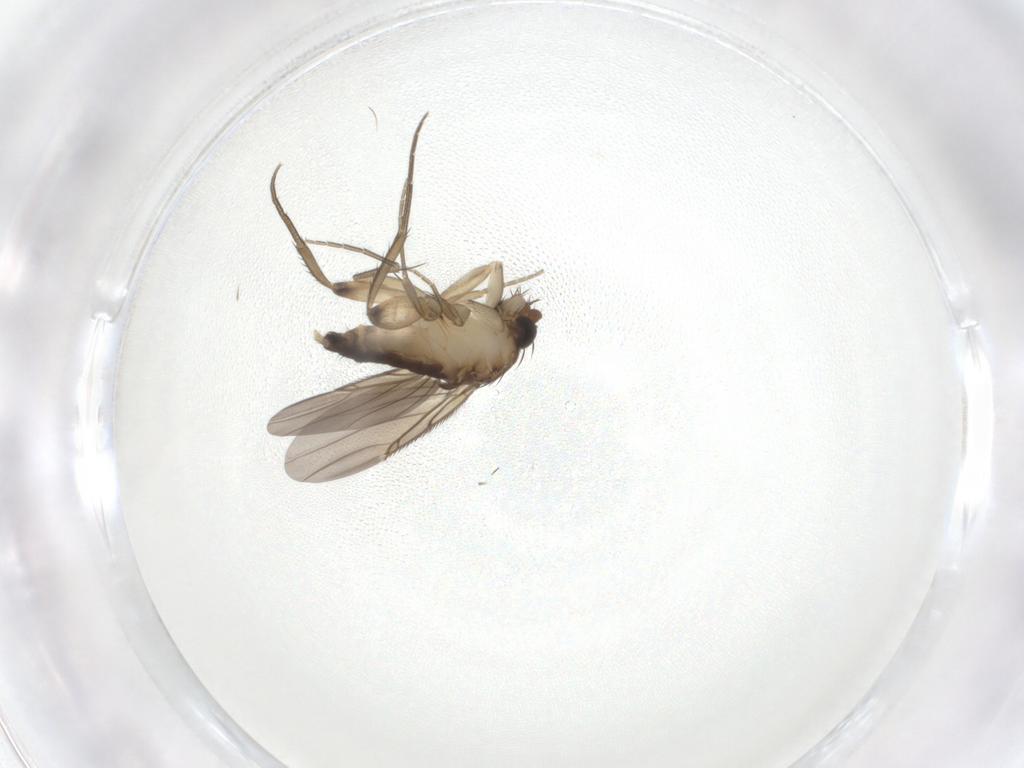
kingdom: Animalia
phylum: Arthropoda
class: Insecta
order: Diptera
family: Phoridae
